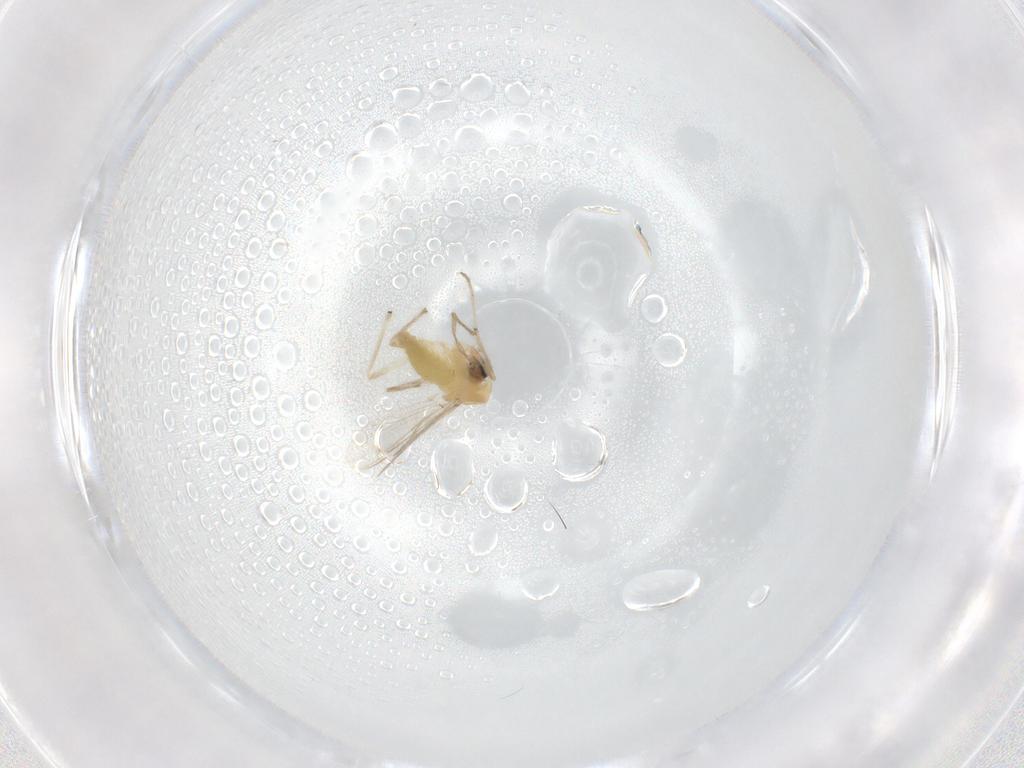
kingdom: Animalia
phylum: Arthropoda
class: Insecta
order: Diptera
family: Chironomidae
